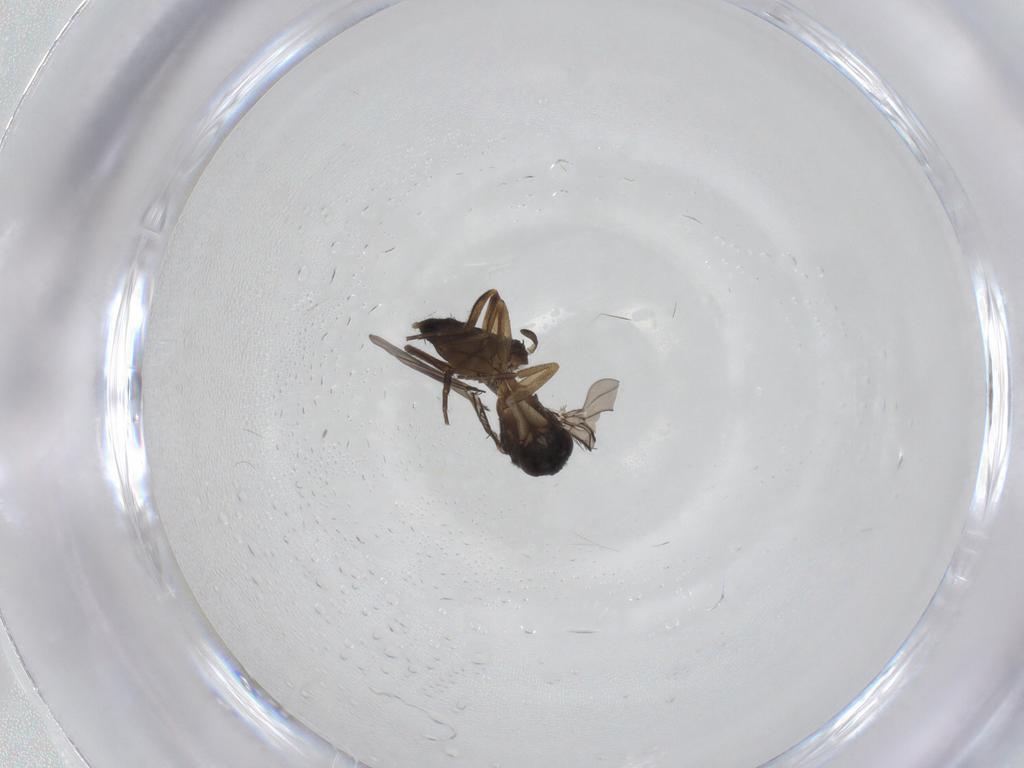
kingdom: Animalia
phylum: Arthropoda
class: Insecta
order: Diptera
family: Phoridae
